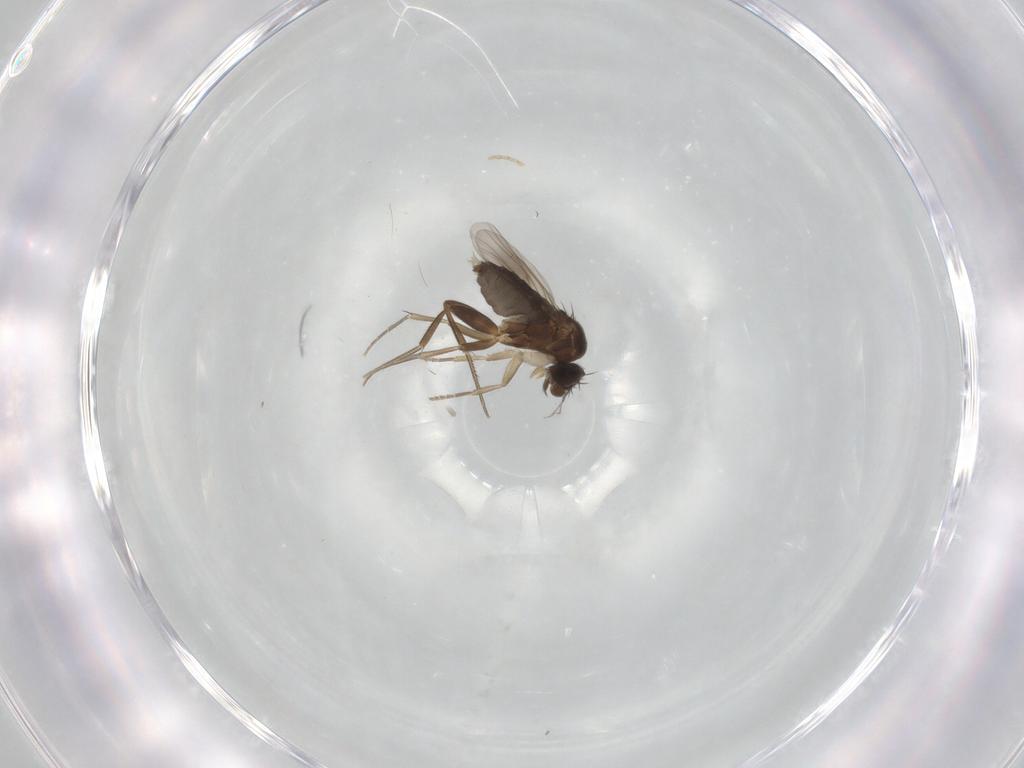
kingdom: Animalia
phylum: Arthropoda
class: Insecta
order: Diptera
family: Phoridae
